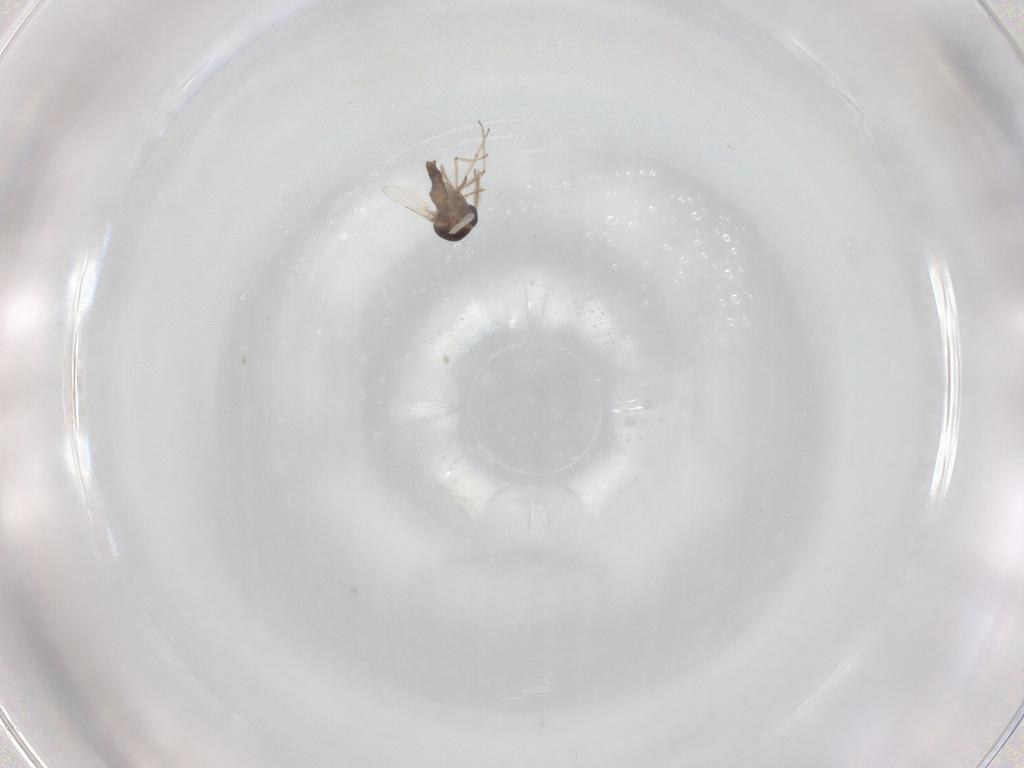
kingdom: Animalia
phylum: Arthropoda
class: Insecta
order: Diptera
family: Ceratopogonidae
